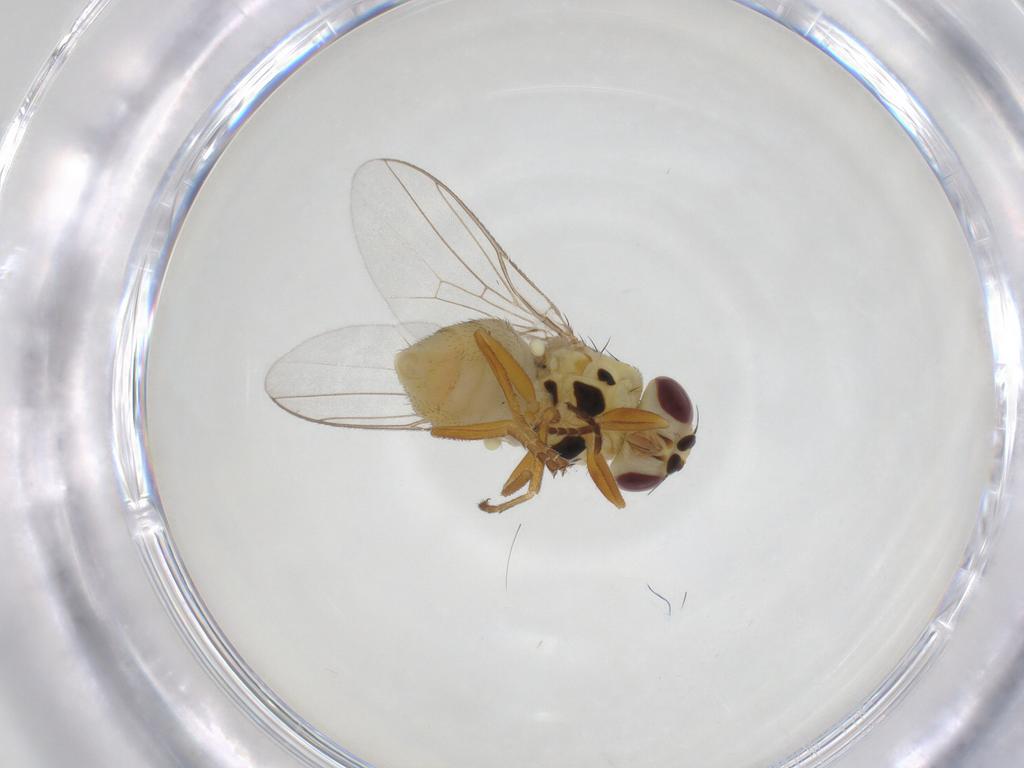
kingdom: Animalia
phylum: Arthropoda
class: Insecta
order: Diptera
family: Chloropidae
